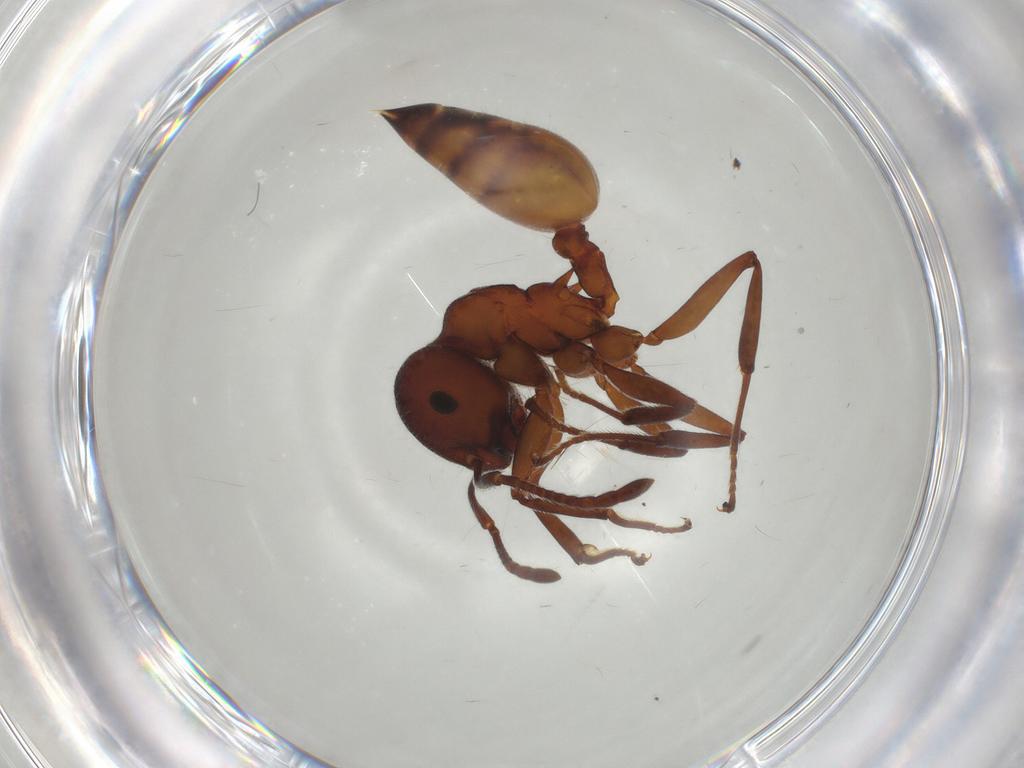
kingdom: Animalia
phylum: Arthropoda
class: Insecta
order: Hymenoptera
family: Formicidae
